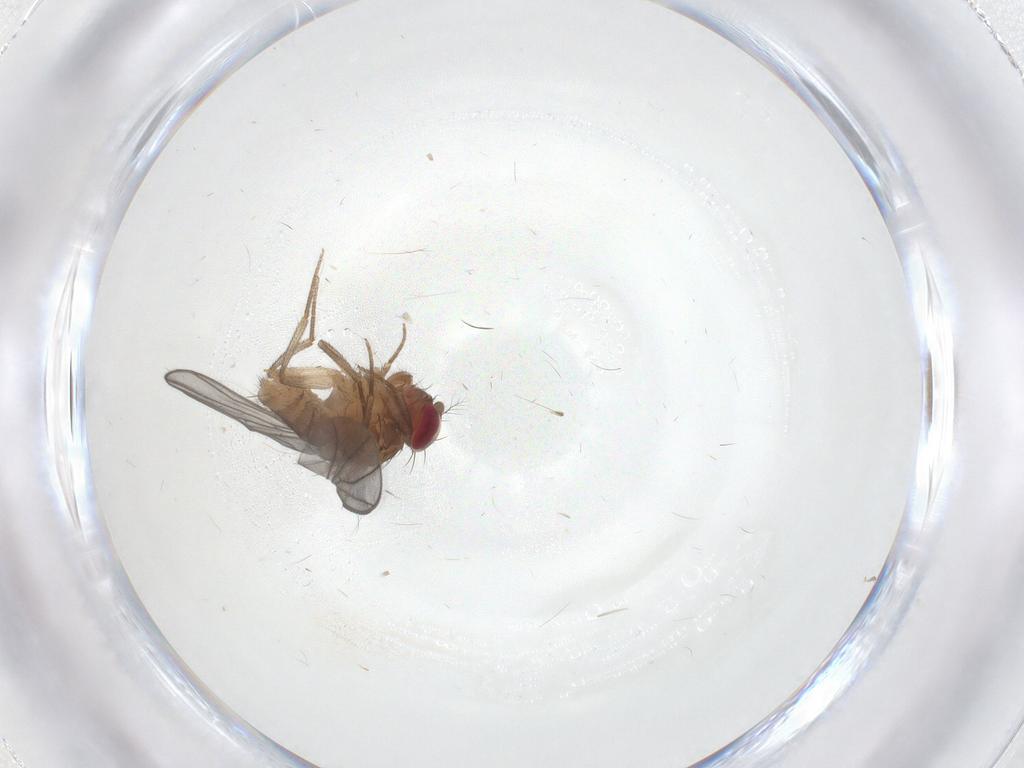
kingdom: Animalia
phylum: Arthropoda
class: Insecta
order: Diptera
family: Drosophilidae
